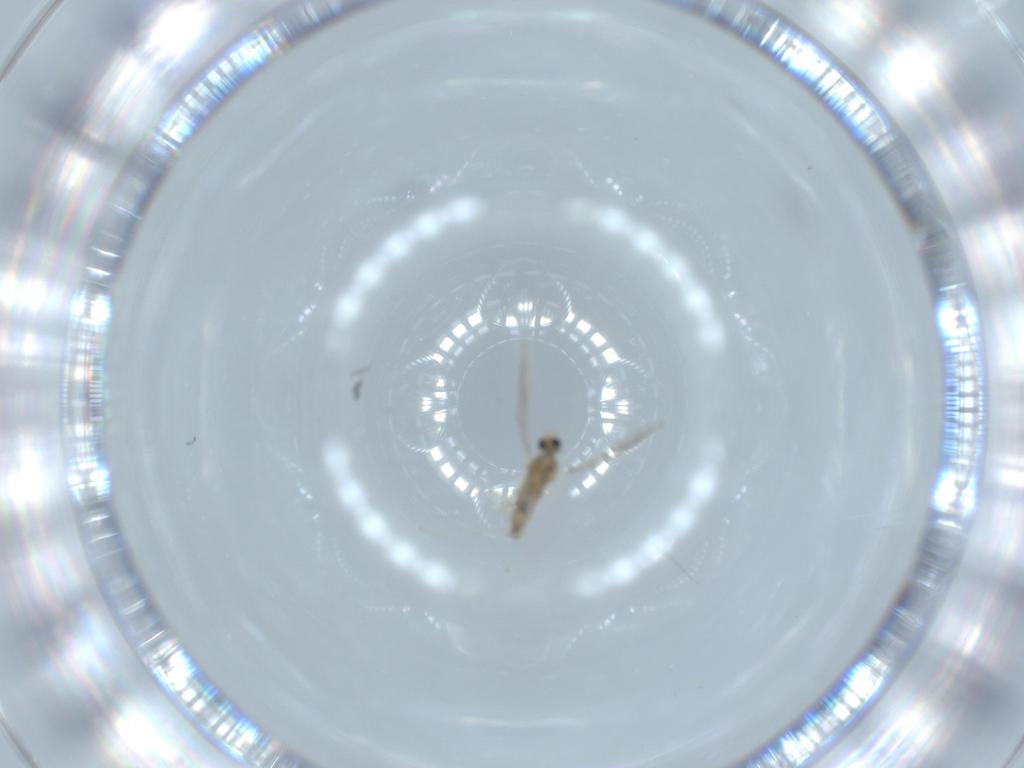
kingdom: Animalia
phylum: Arthropoda
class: Insecta
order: Diptera
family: Cecidomyiidae
